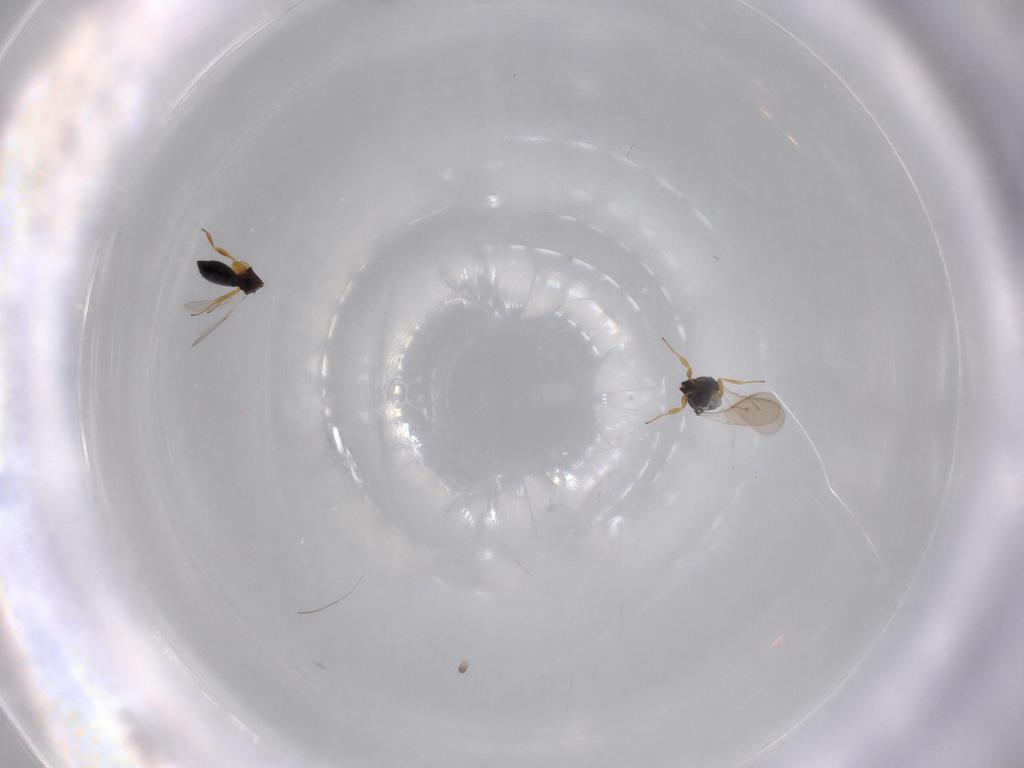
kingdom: Animalia
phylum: Arthropoda
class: Insecta
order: Hymenoptera
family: Scelionidae
